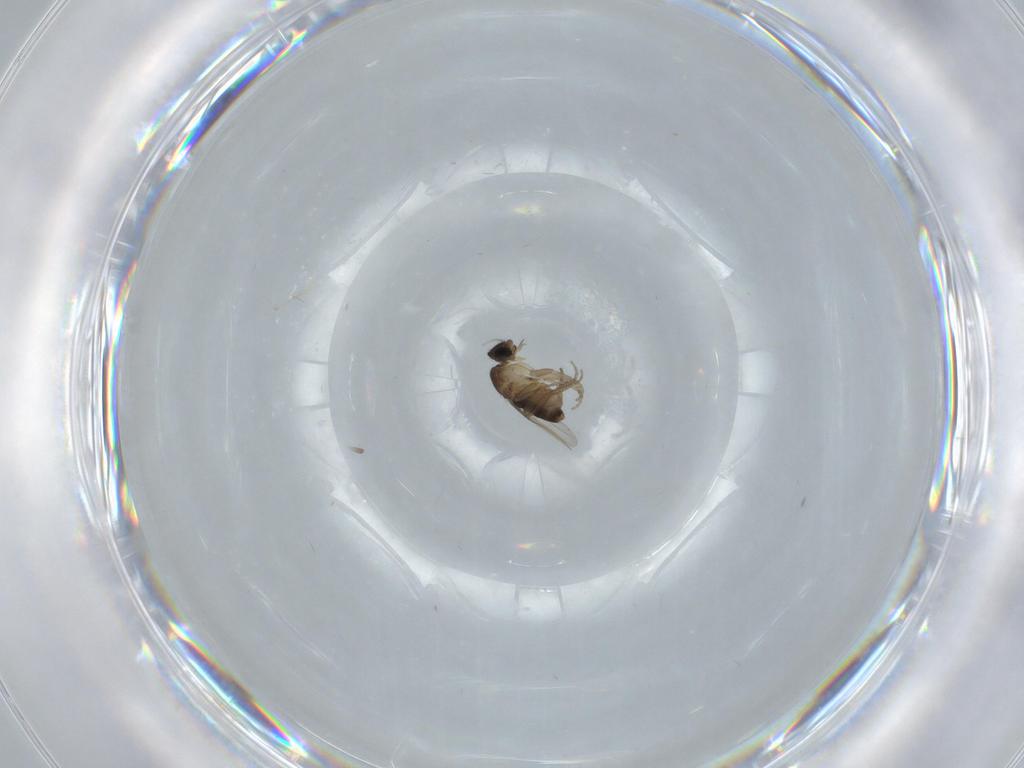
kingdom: Animalia
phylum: Arthropoda
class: Insecta
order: Diptera
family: Phoridae
